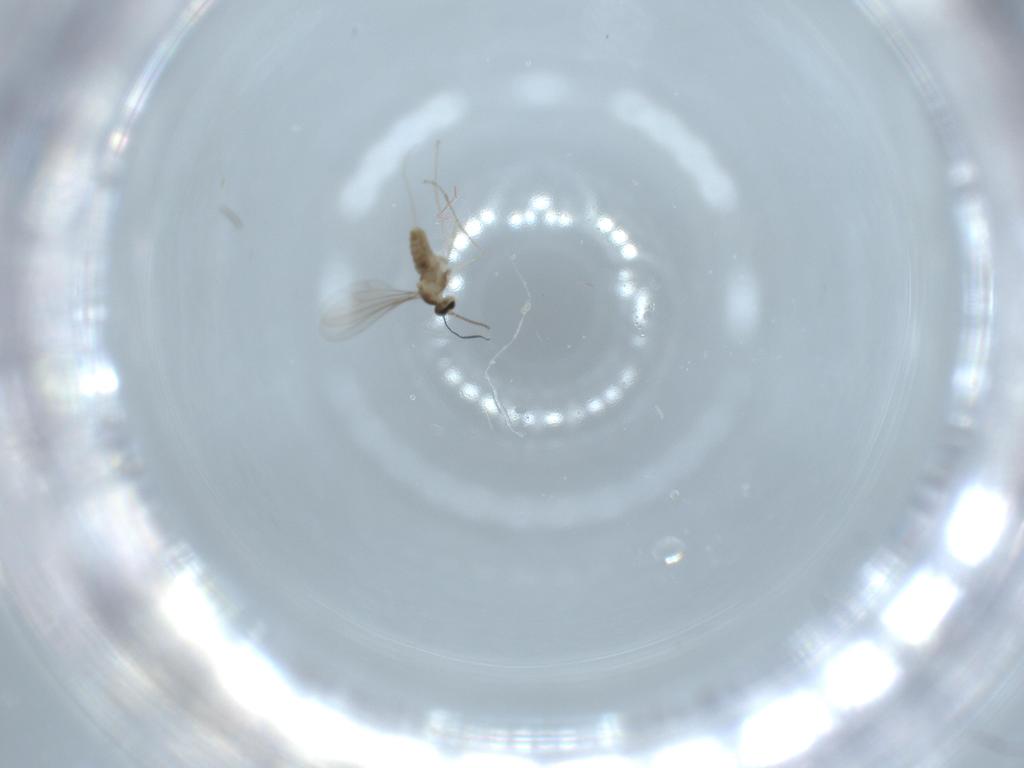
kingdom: Animalia
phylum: Arthropoda
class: Insecta
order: Diptera
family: Cecidomyiidae
